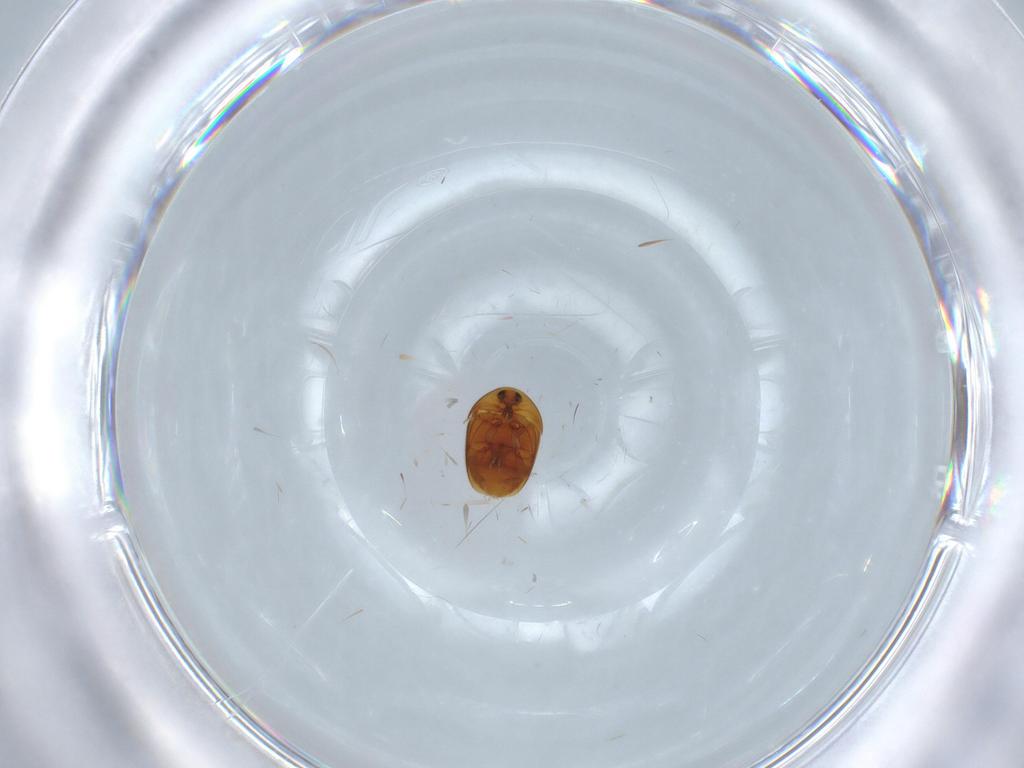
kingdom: Animalia
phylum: Arthropoda
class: Insecta
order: Coleoptera
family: Corylophidae
